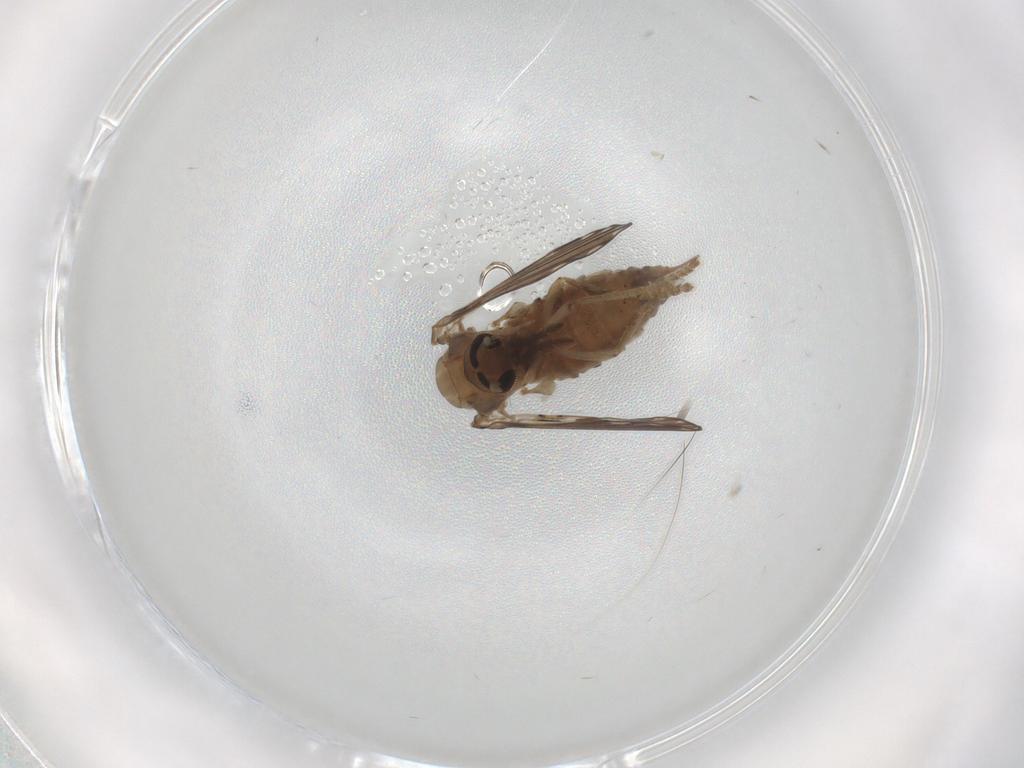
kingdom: Animalia
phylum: Arthropoda
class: Insecta
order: Diptera
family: Psychodidae
